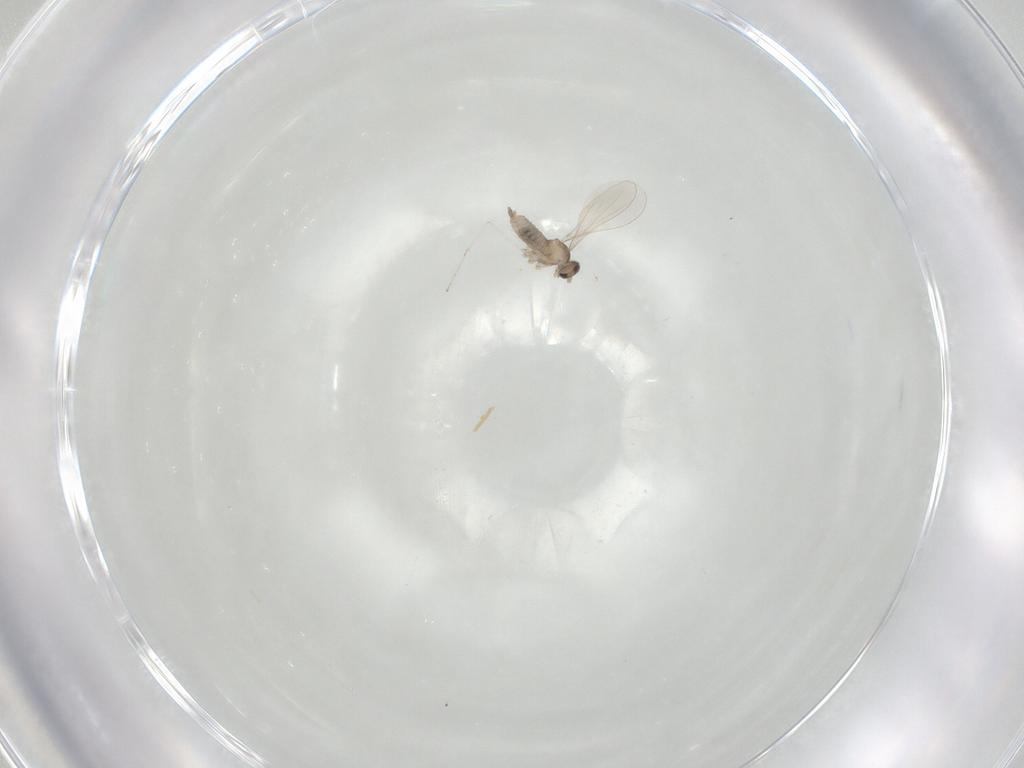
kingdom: Animalia
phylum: Arthropoda
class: Insecta
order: Diptera
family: Cecidomyiidae
